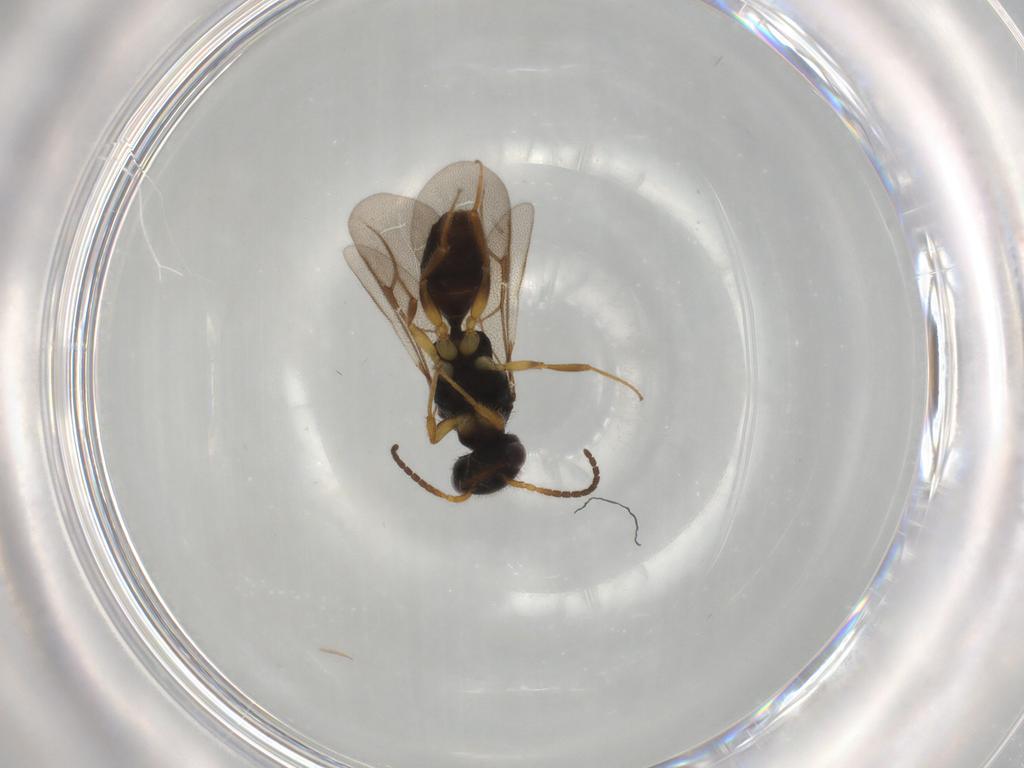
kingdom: Animalia
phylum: Arthropoda
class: Insecta
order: Hymenoptera
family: Bethylidae
